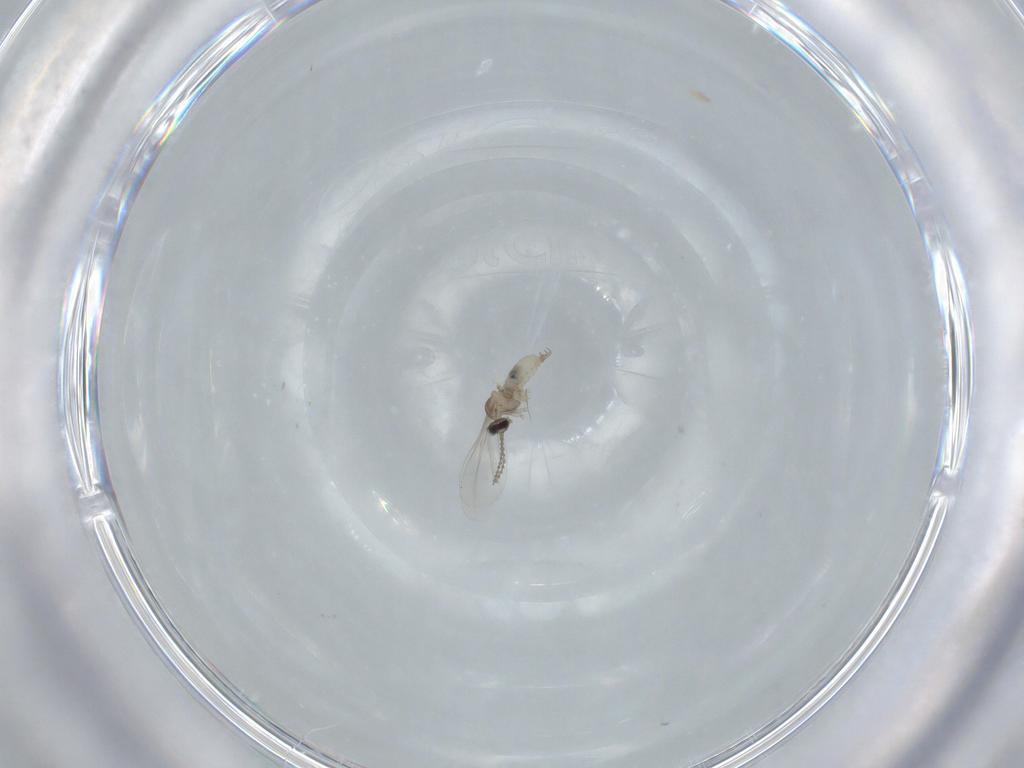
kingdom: Animalia
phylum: Arthropoda
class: Insecta
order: Diptera
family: Cecidomyiidae
